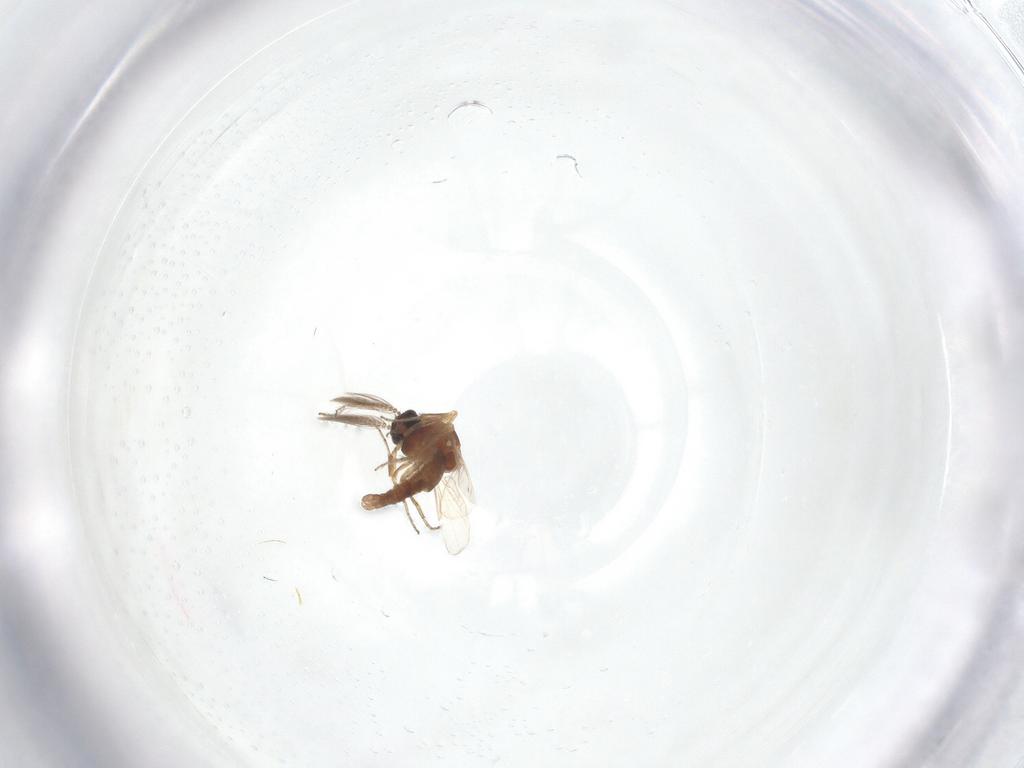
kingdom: Animalia
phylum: Arthropoda
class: Insecta
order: Diptera
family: Ceratopogonidae
